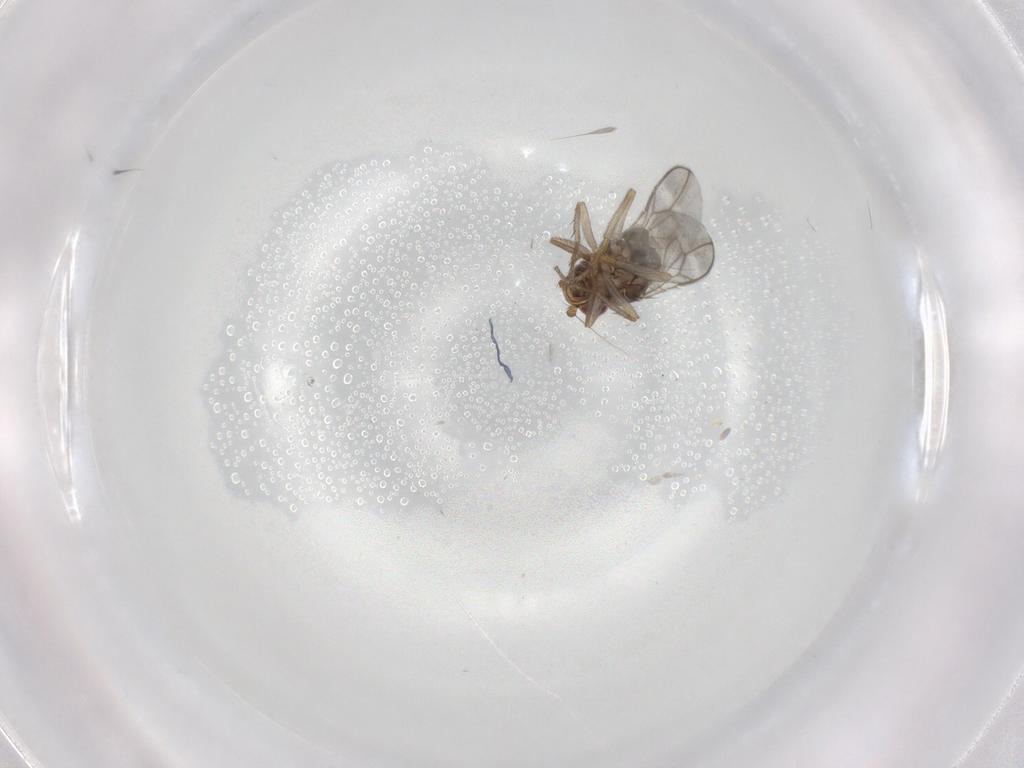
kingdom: Animalia
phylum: Arthropoda
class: Insecta
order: Diptera
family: Sphaeroceridae
